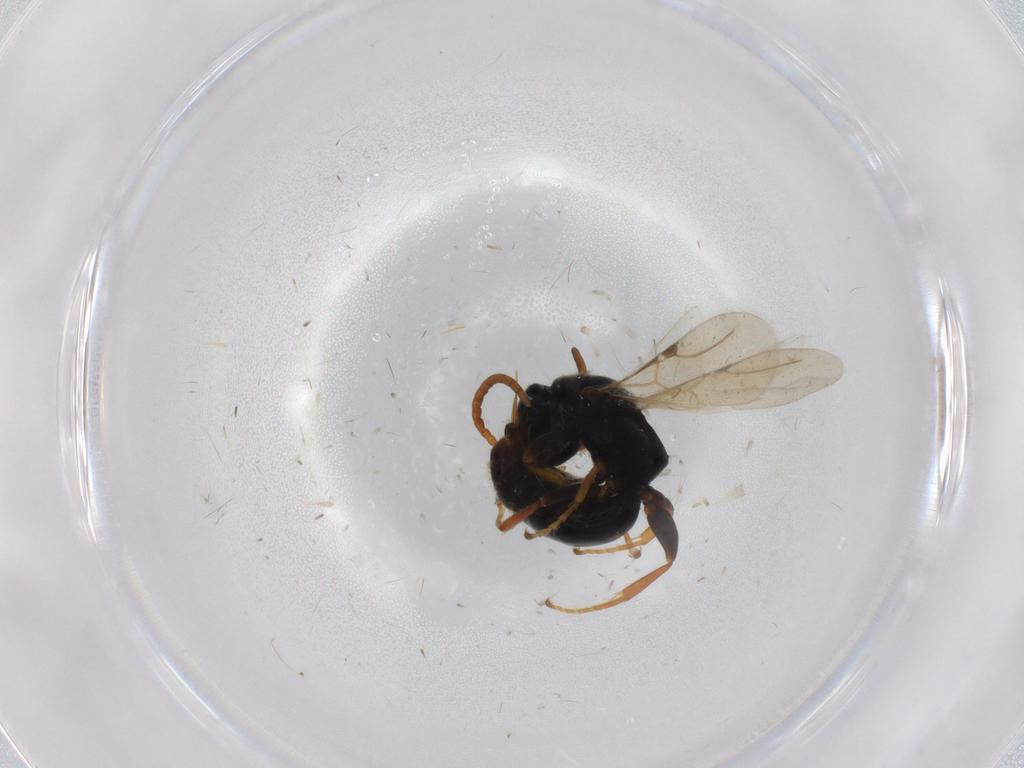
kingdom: Animalia
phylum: Arthropoda
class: Insecta
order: Hymenoptera
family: Bethylidae
